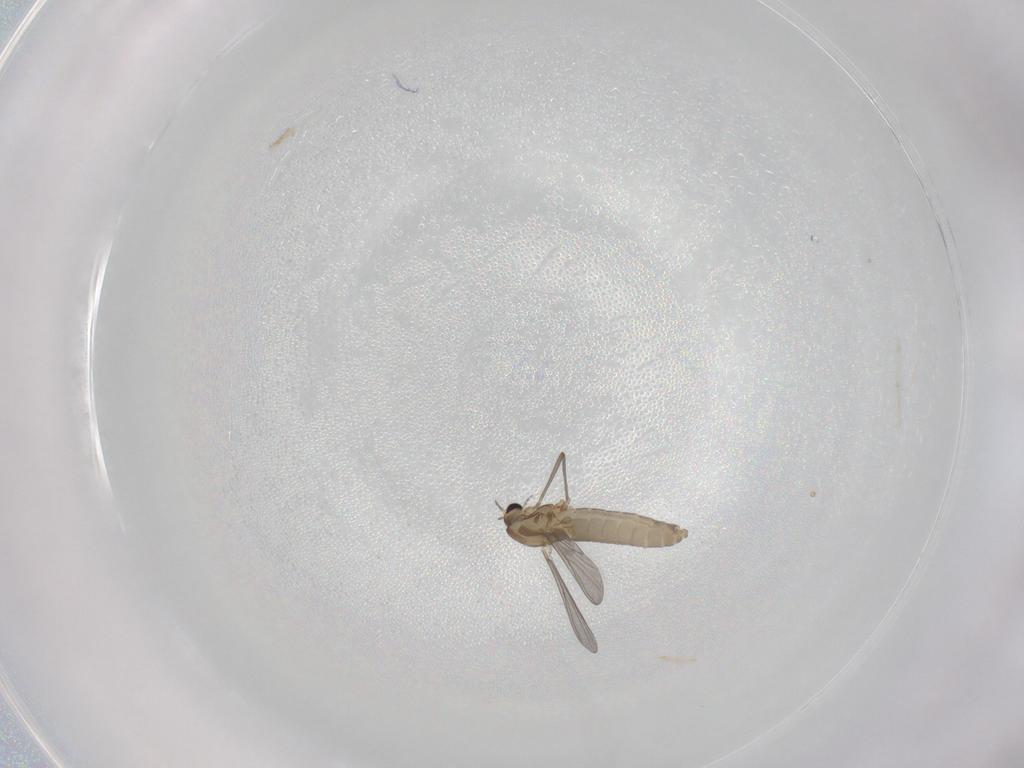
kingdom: Animalia
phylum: Arthropoda
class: Insecta
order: Diptera
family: Chironomidae
